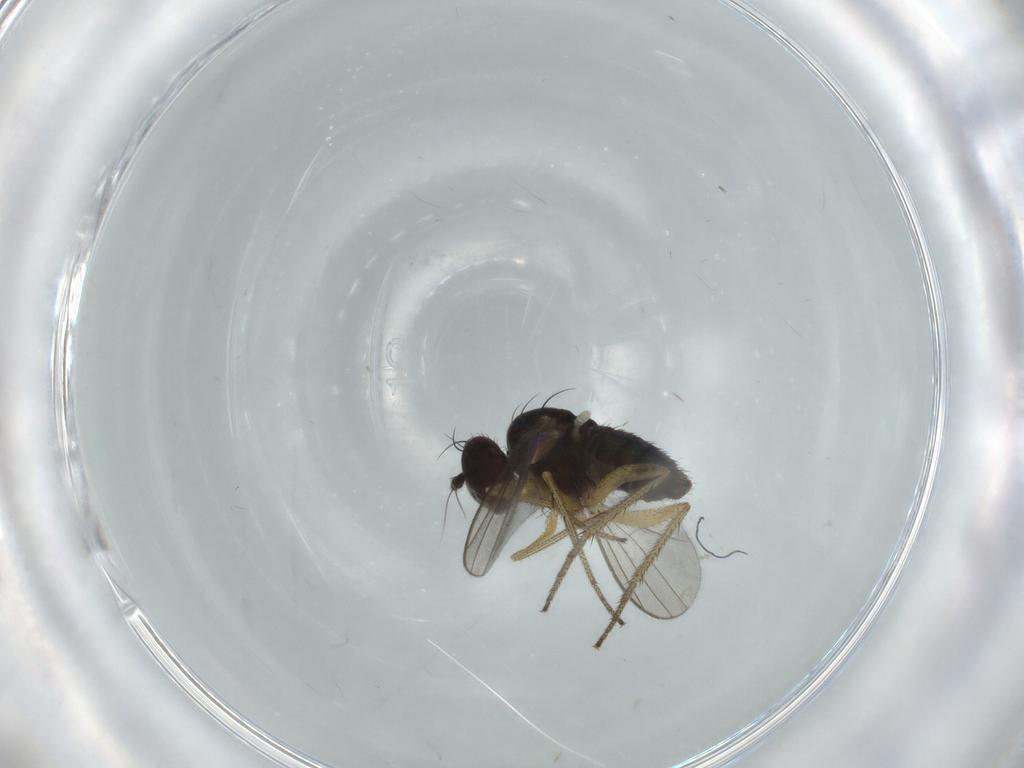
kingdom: Animalia
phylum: Arthropoda
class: Insecta
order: Diptera
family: Dolichopodidae
